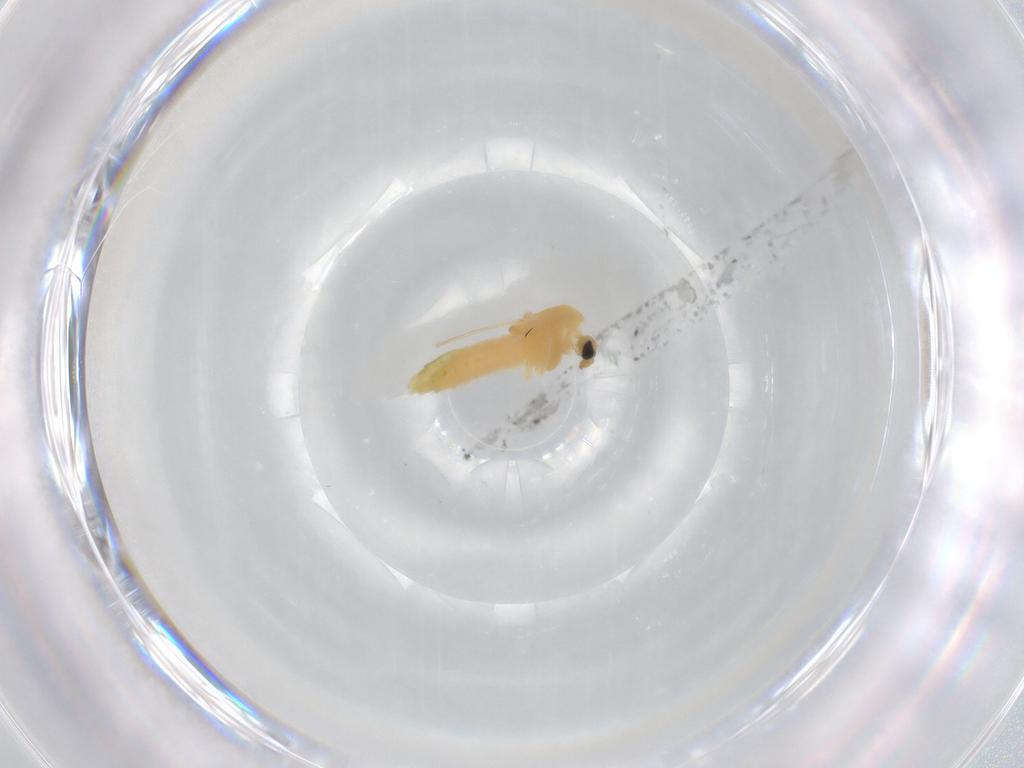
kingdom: Animalia
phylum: Arthropoda
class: Insecta
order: Diptera
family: Chironomidae
